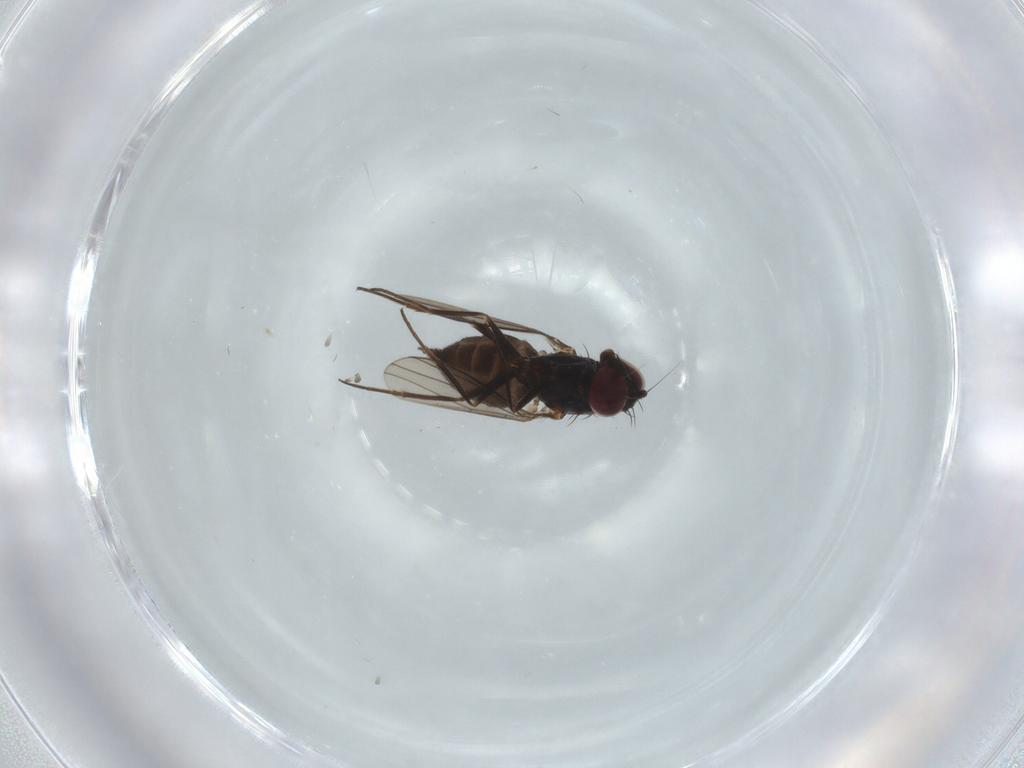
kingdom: Animalia
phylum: Arthropoda
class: Insecta
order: Diptera
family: Dolichopodidae
